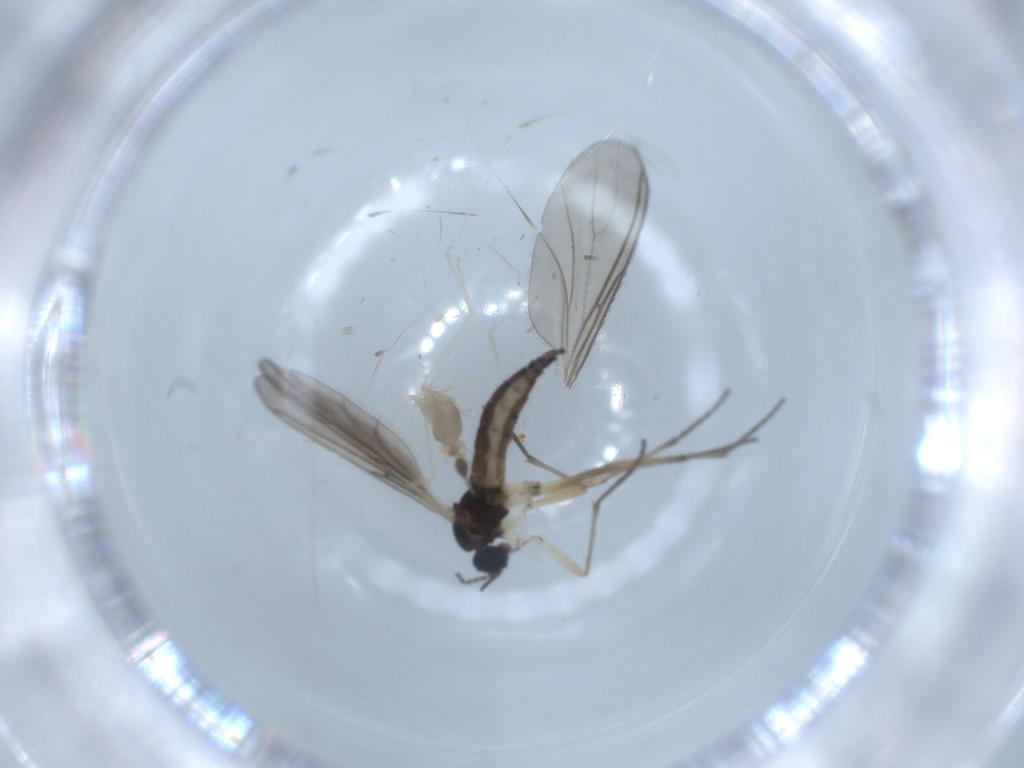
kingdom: Animalia
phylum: Arthropoda
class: Insecta
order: Diptera
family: Sciaridae
